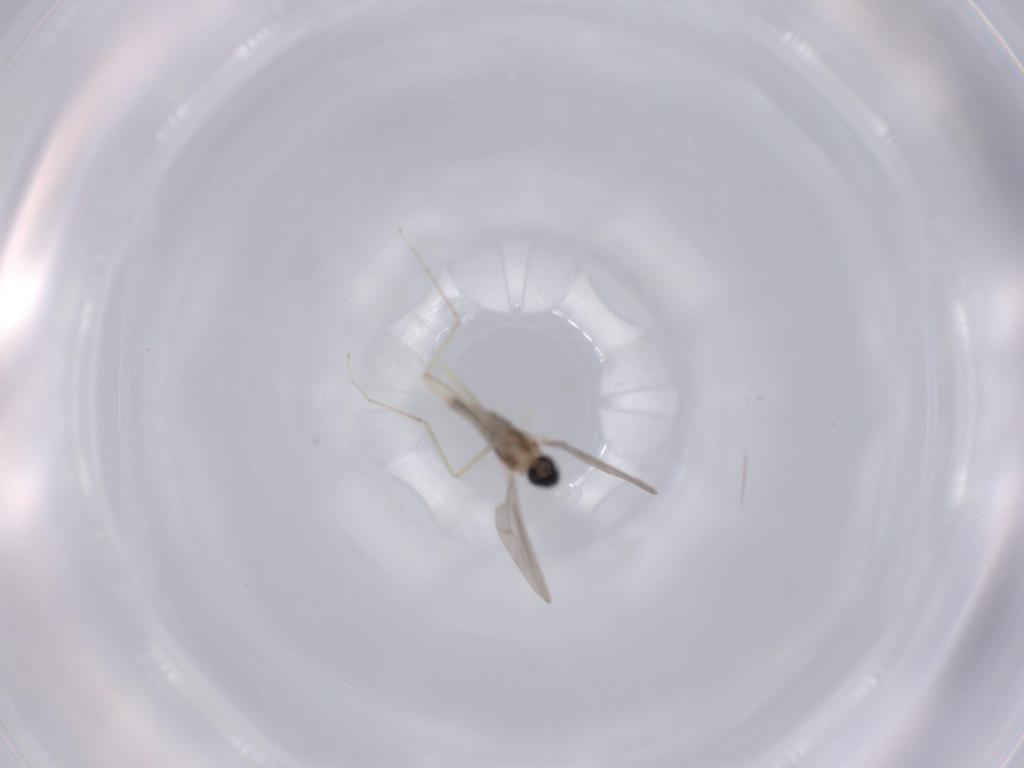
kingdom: Animalia
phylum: Arthropoda
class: Insecta
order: Diptera
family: Cecidomyiidae
